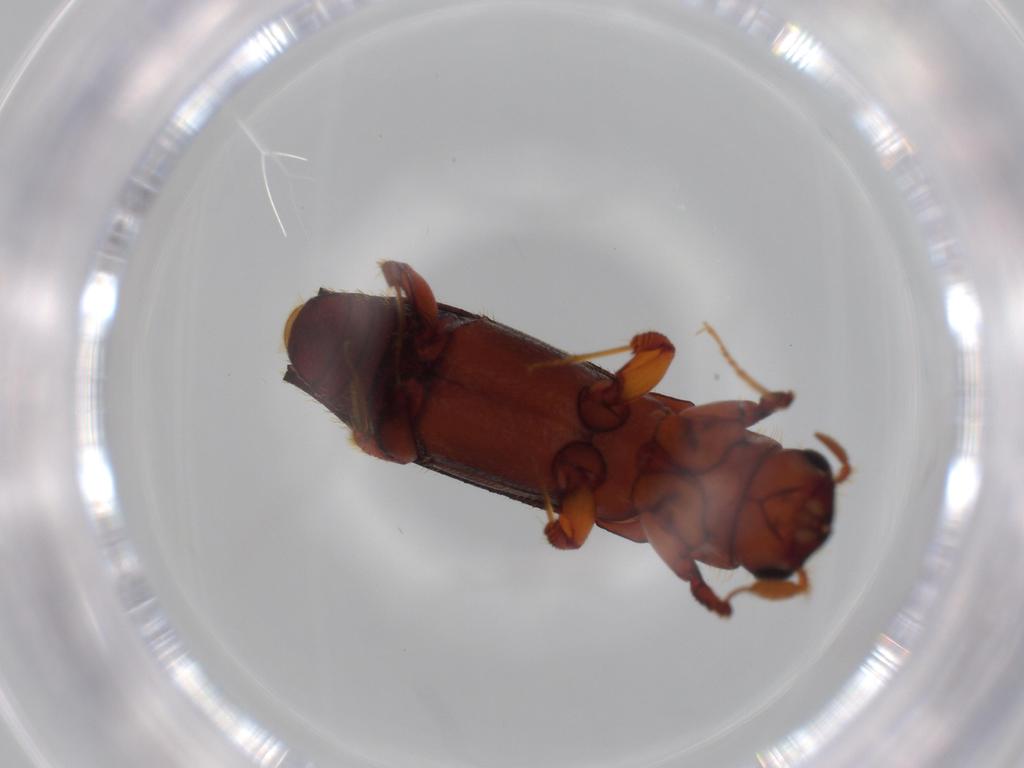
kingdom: Animalia
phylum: Arthropoda
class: Insecta
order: Coleoptera
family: Curculionidae
